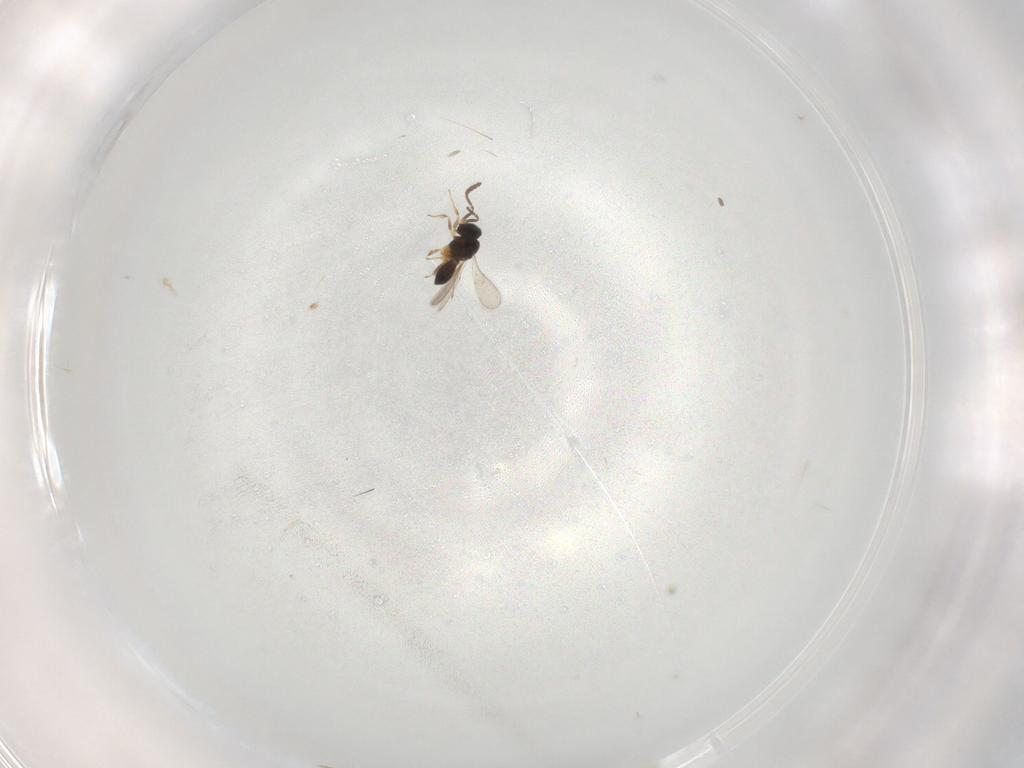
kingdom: Animalia
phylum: Arthropoda
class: Insecta
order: Hymenoptera
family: Scelionidae
